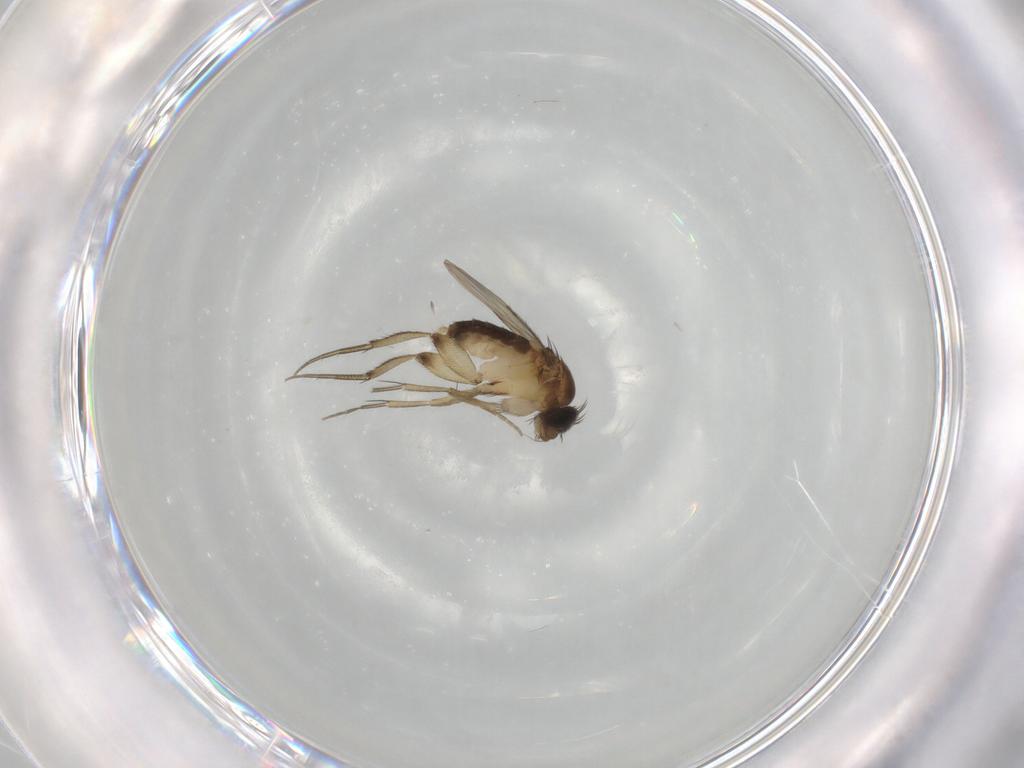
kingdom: Animalia
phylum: Arthropoda
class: Insecta
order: Diptera
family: Phoridae
